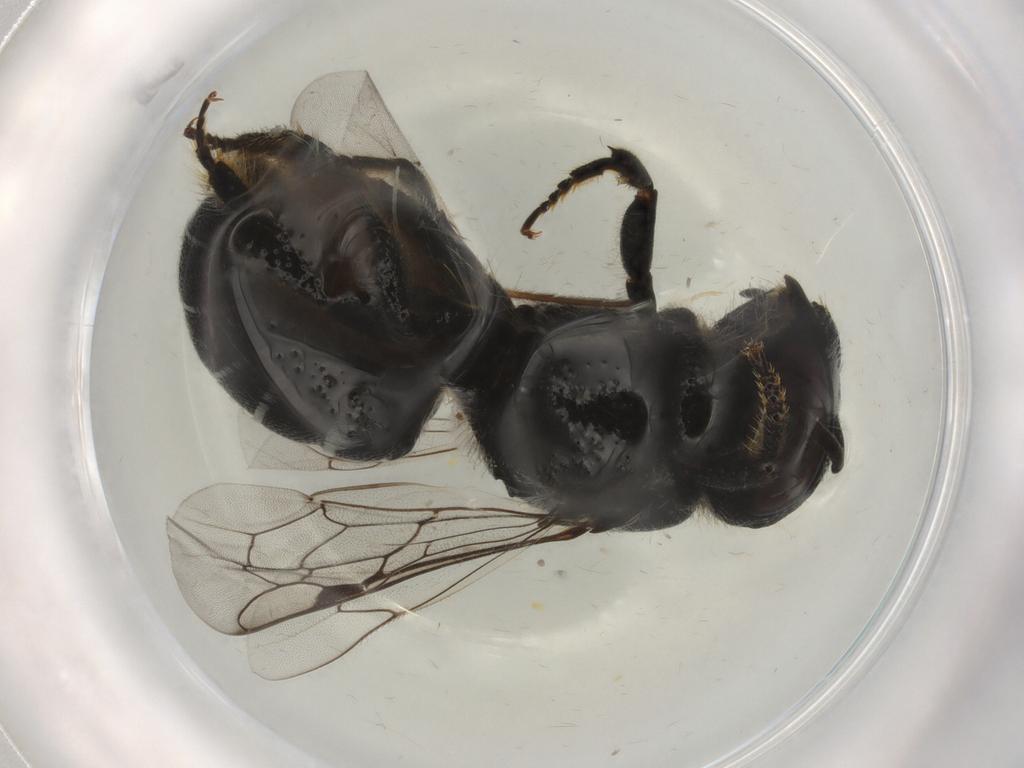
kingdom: Animalia
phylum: Arthropoda
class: Insecta
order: Hymenoptera
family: Megachilidae
